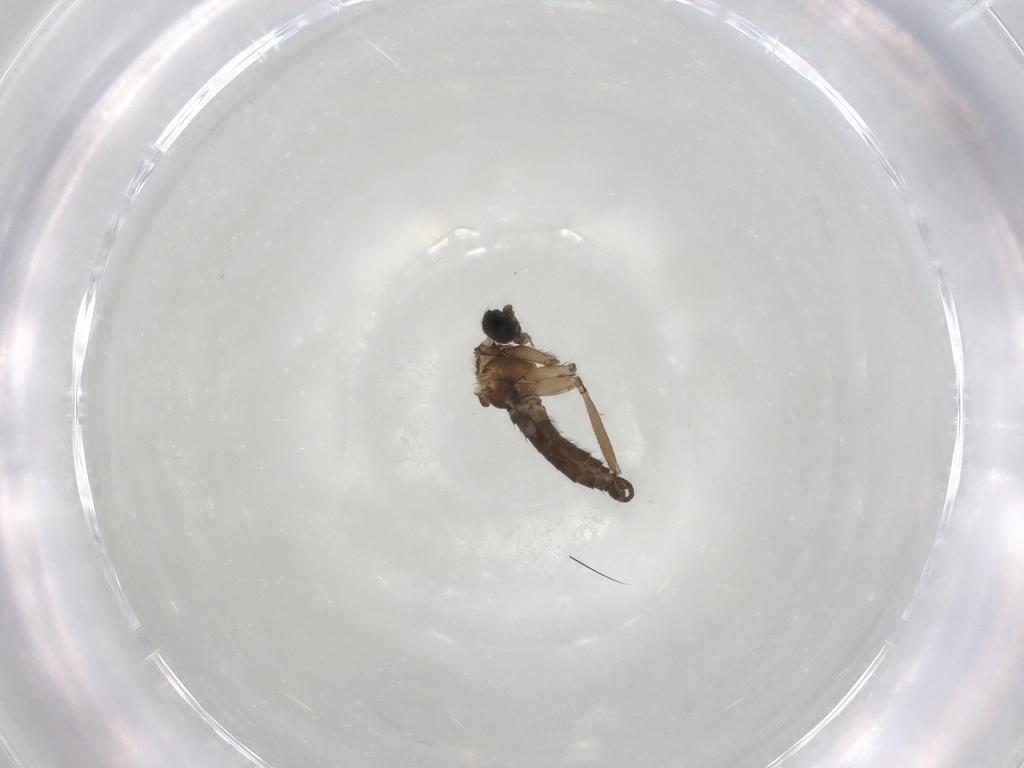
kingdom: Animalia
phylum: Arthropoda
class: Insecta
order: Diptera
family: Sciaridae
